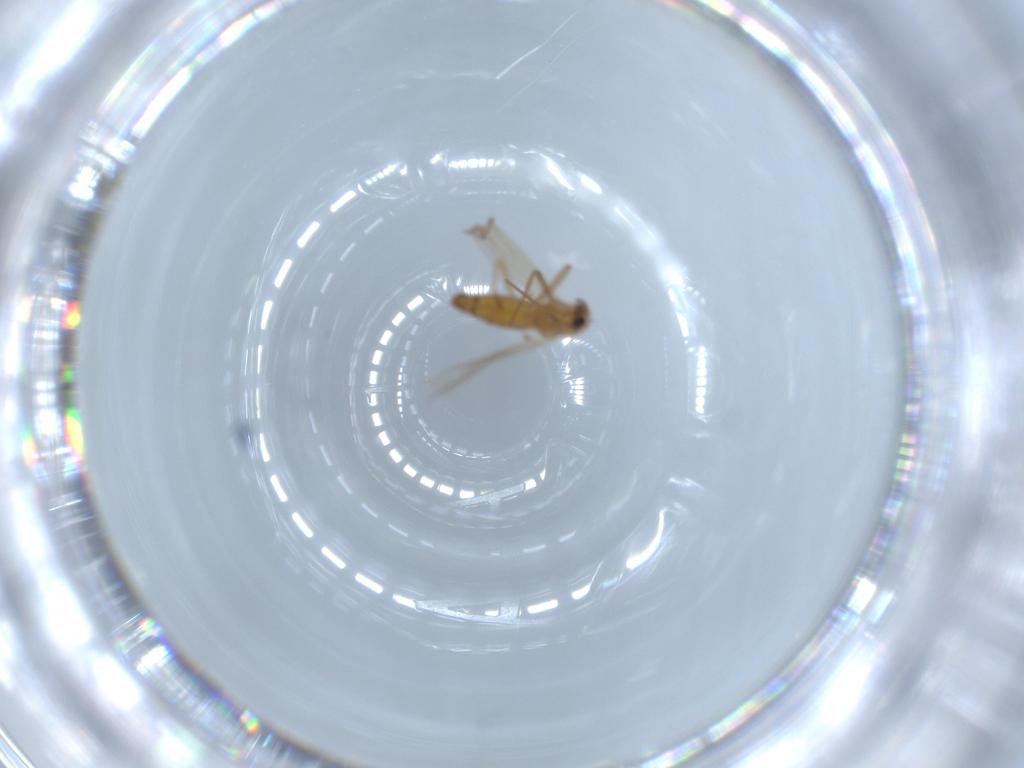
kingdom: Animalia
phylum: Arthropoda
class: Insecta
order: Diptera
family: Chironomidae
